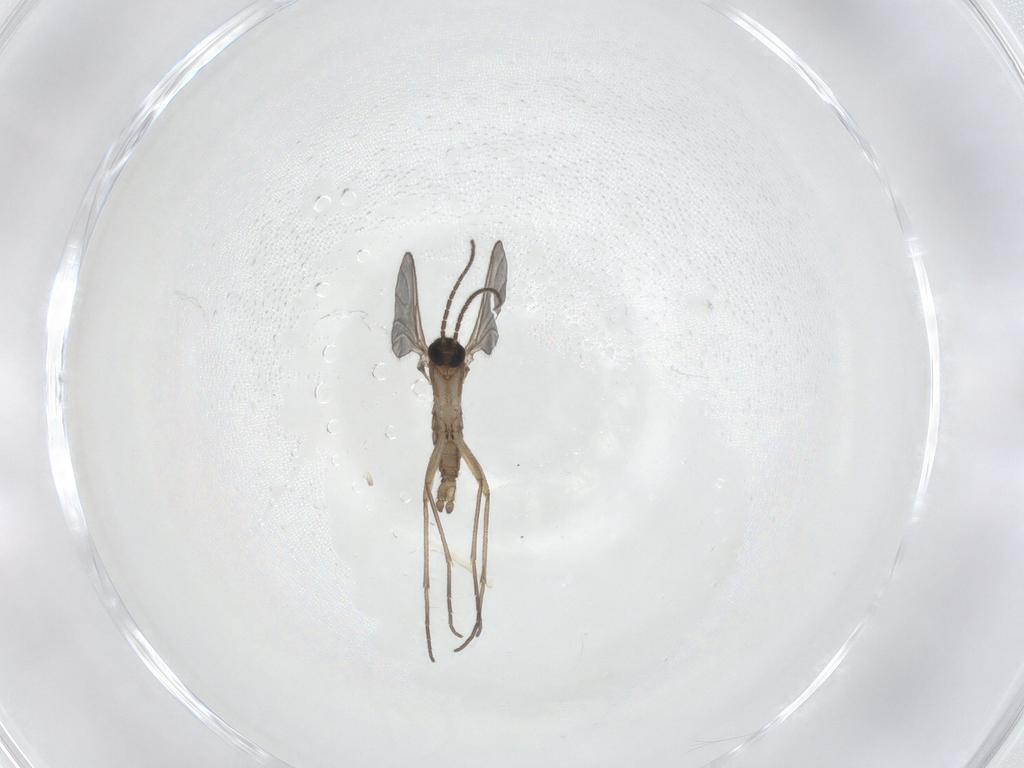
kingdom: Animalia
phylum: Arthropoda
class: Insecta
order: Diptera
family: Sciaridae
